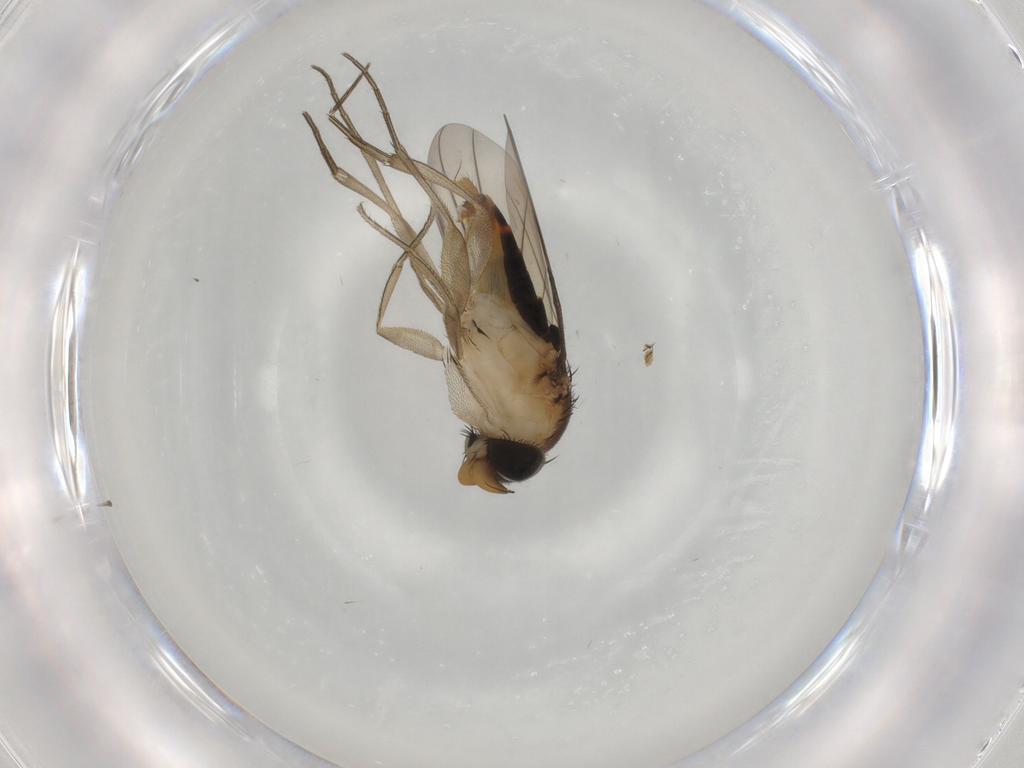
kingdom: Animalia
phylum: Arthropoda
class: Insecta
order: Diptera
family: Phoridae
